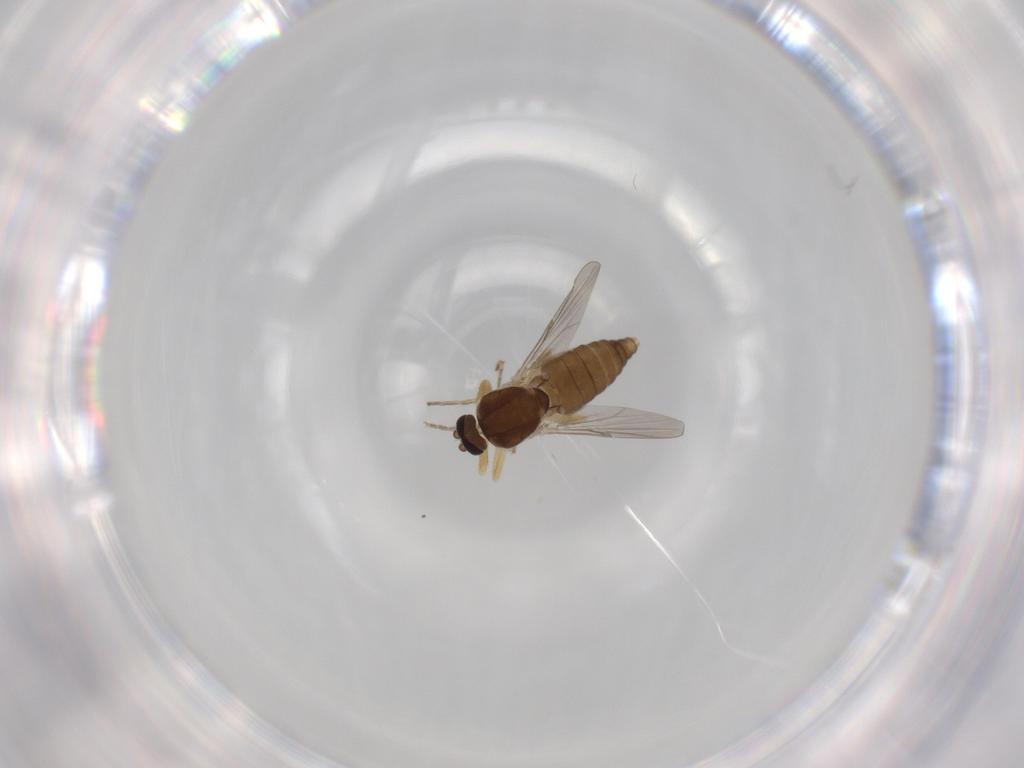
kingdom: Animalia
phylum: Arthropoda
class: Insecta
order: Diptera
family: Ceratopogonidae
